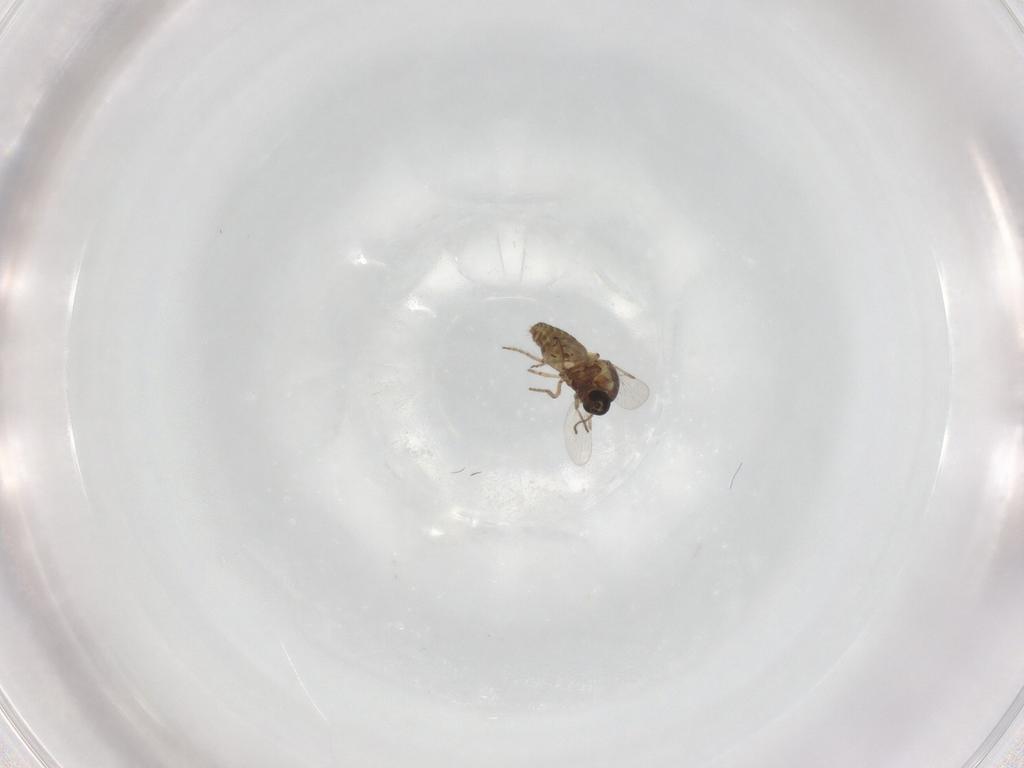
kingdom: Animalia
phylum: Arthropoda
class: Insecta
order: Diptera
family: Ceratopogonidae
